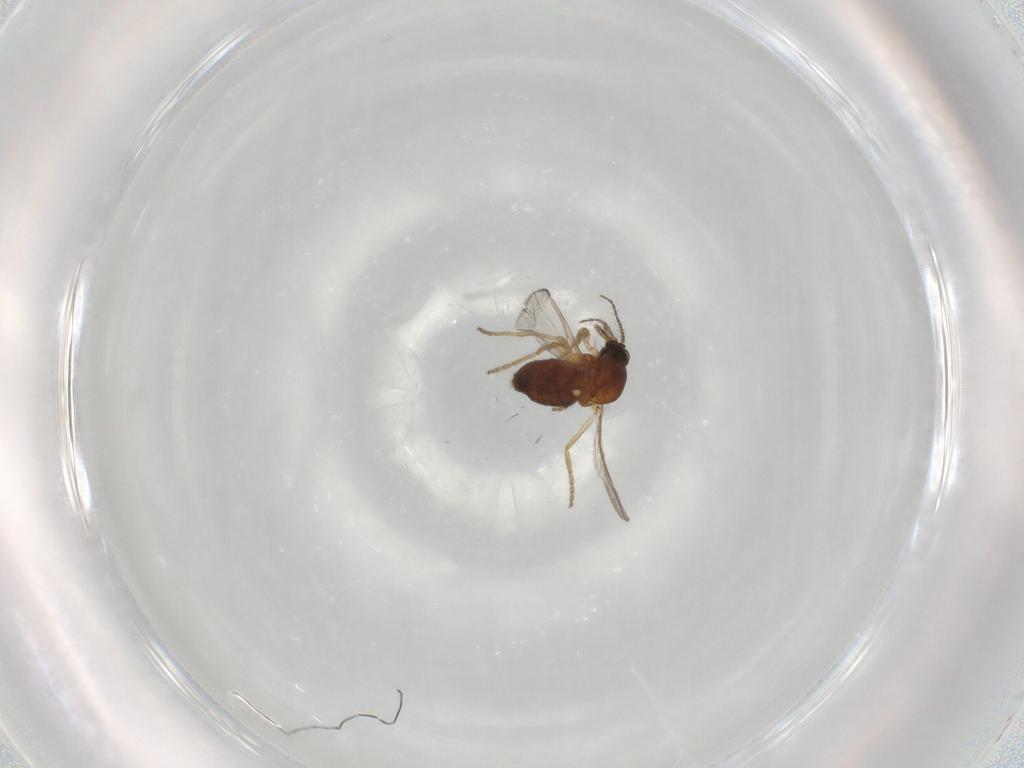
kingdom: Animalia
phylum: Arthropoda
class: Insecta
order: Diptera
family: Ceratopogonidae
